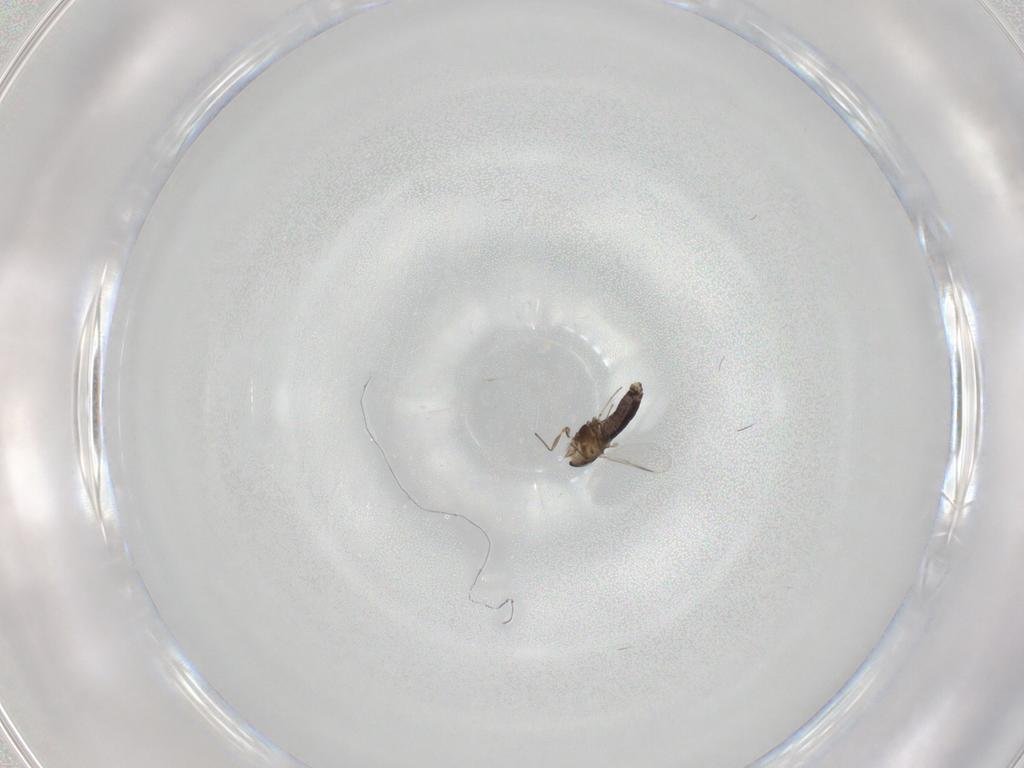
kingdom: Animalia
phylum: Arthropoda
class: Insecta
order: Diptera
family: Chironomidae
